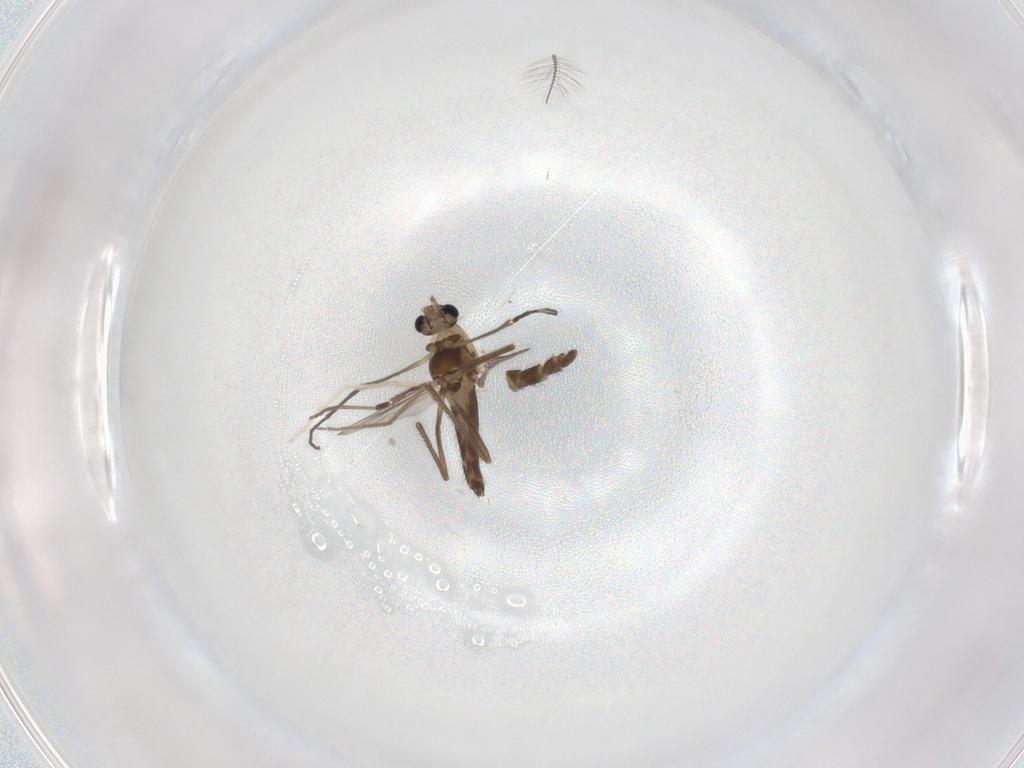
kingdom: Animalia
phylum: Arthropoda
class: Insecta
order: Diptera
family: Chironomidae
